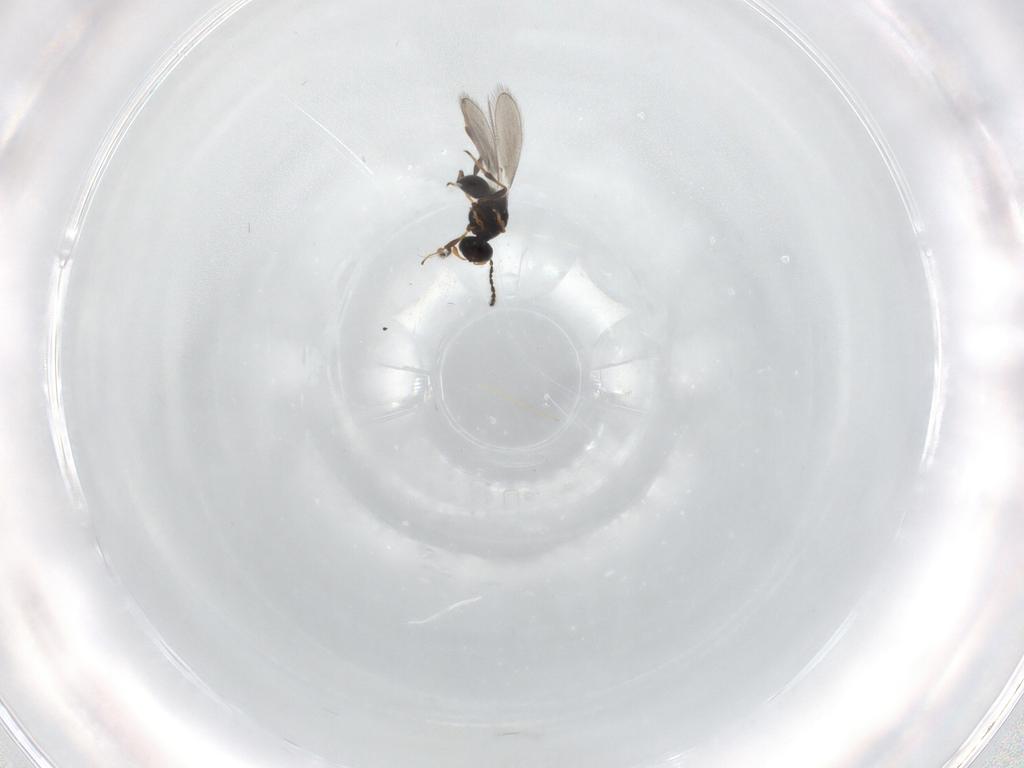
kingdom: Animalia
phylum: Arthropoda
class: Insecta
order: Hymenoptera
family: Platygastridae
